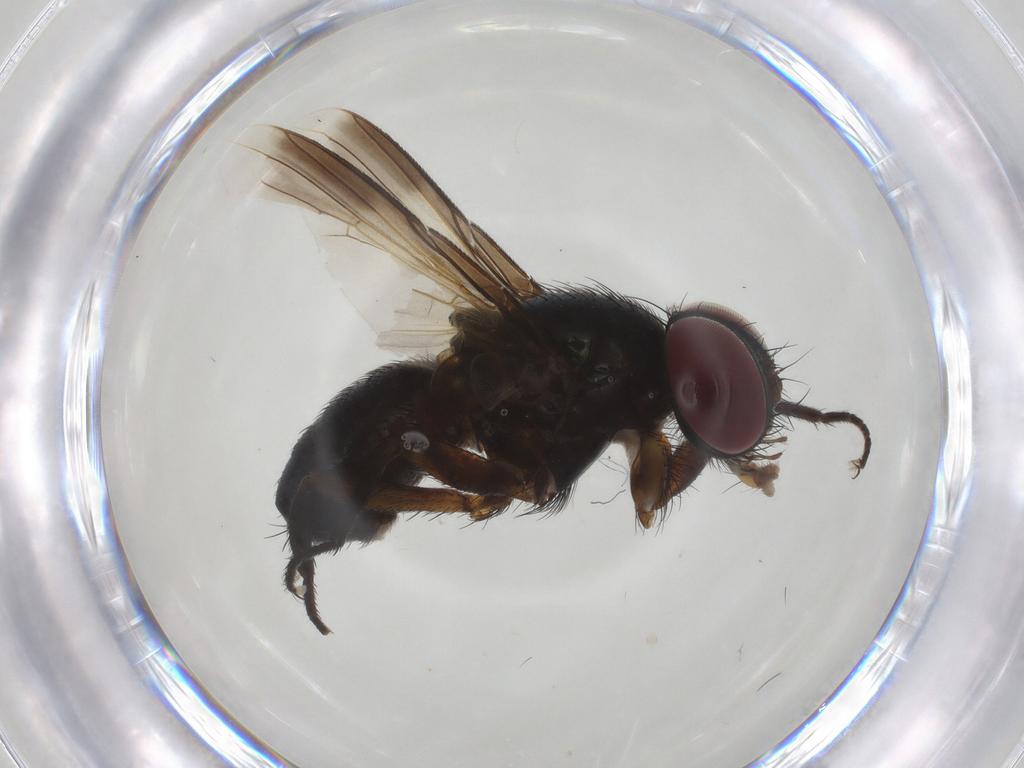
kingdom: Animalia
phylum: Arthropoda
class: Insecta
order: Diptera
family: Tachinidae
